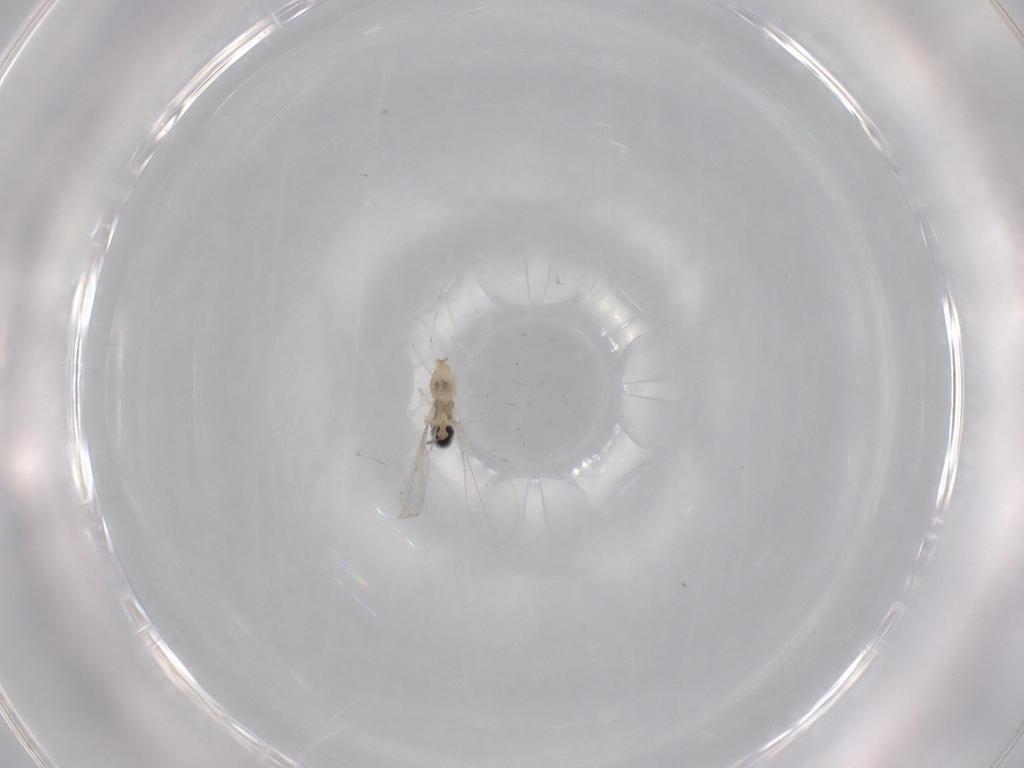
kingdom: Animalia
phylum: Arthropoda
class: Insecta
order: Diptera
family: Cecidomyiidae
